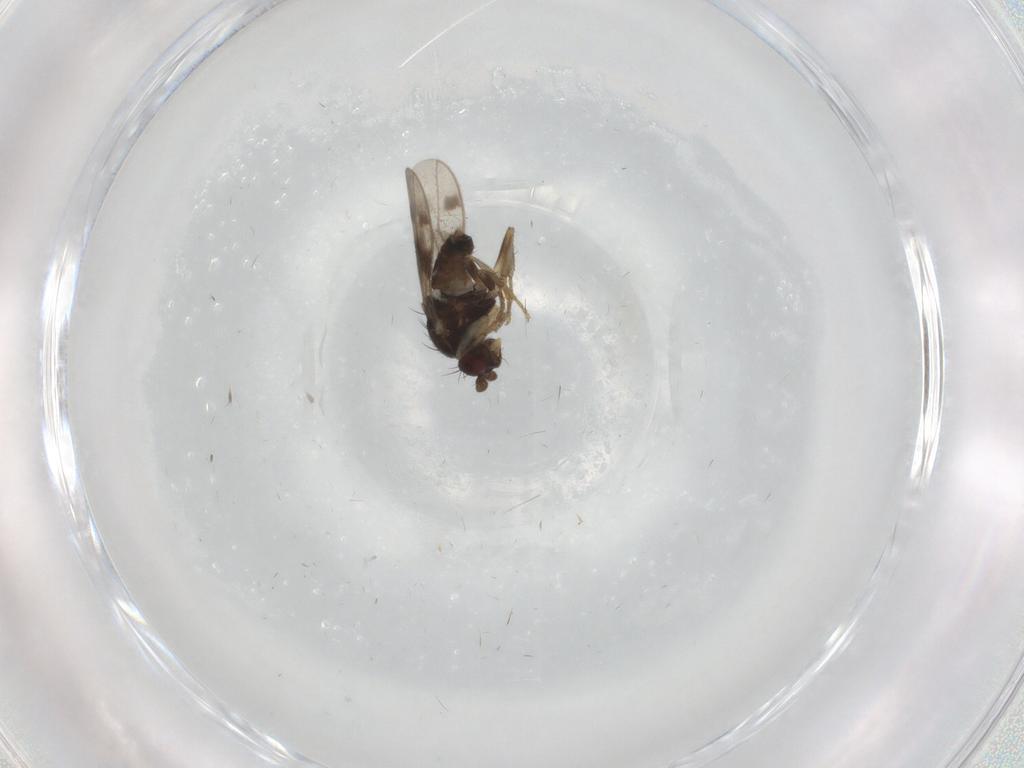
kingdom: Animalia
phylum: Arthropoda
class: Insecta
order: Diptera
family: Sphaeroceridae
